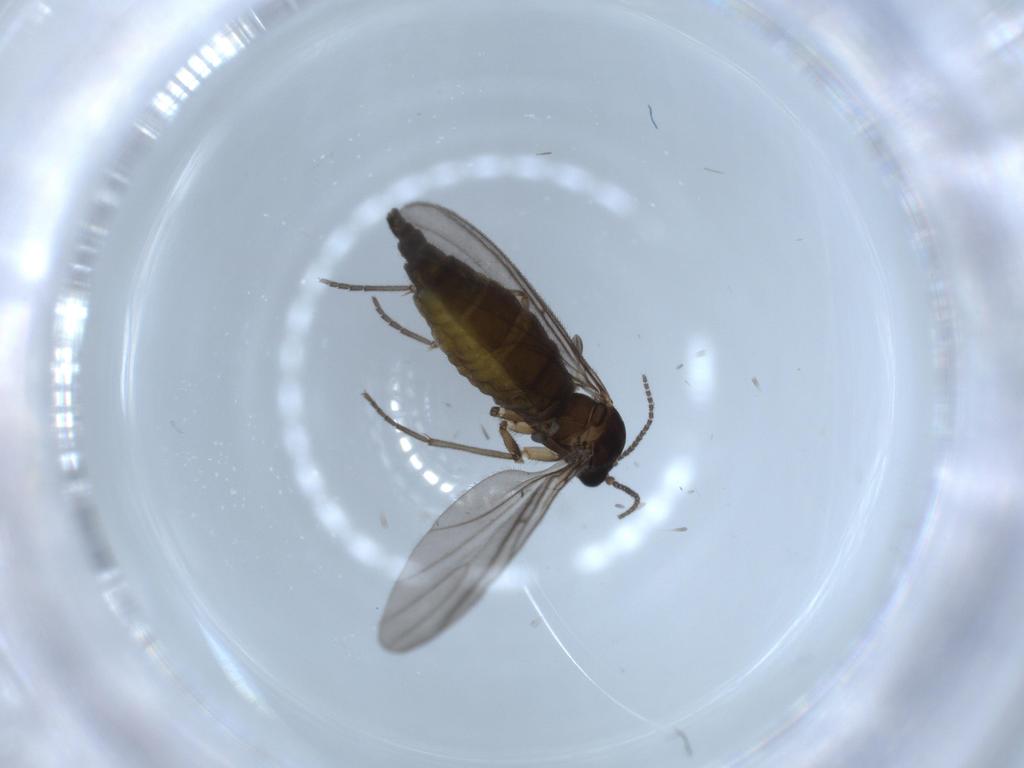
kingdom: Animalia
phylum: Arthropoda
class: Insecta
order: Diptera
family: Sciaridae
